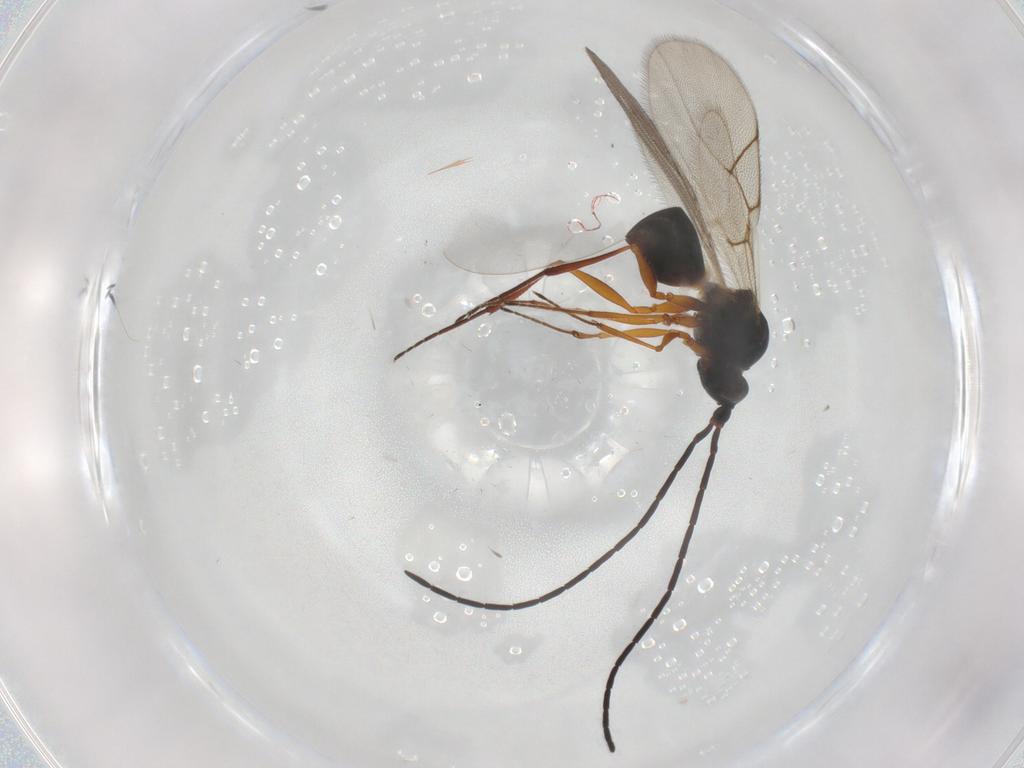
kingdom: Animalia
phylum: Arthropoda
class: Insecta
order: Hymenoptera
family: Figitidae
